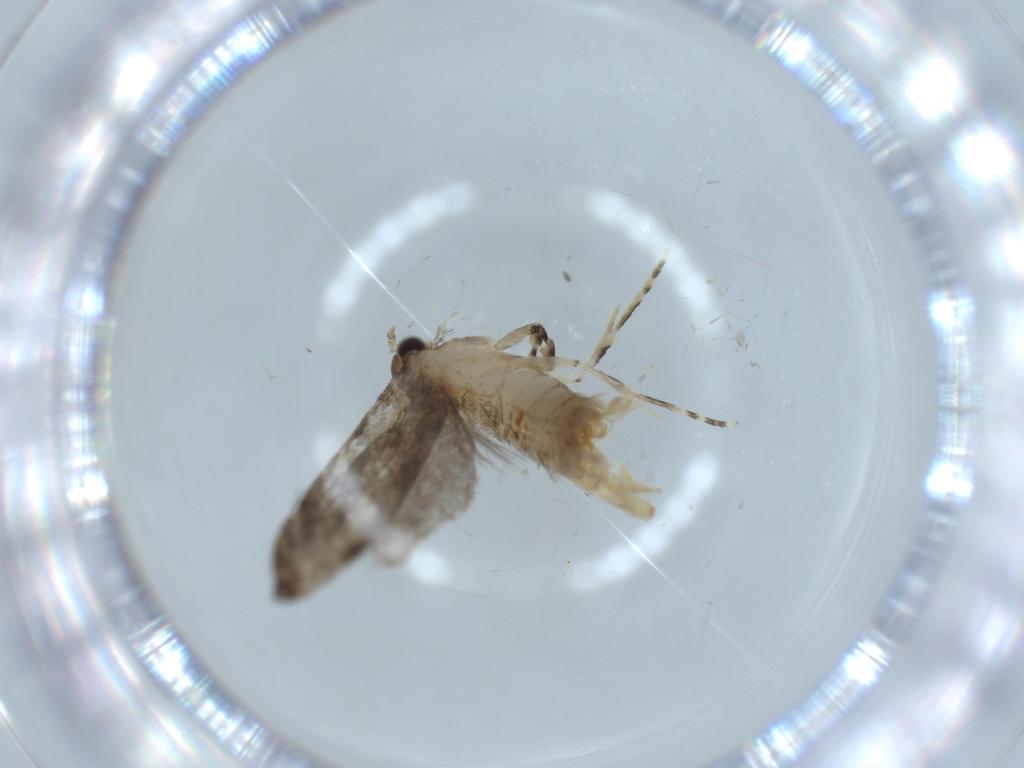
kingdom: Animalia
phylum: Arthropoda
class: Insecta
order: Lepidoptera
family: Tineidae
